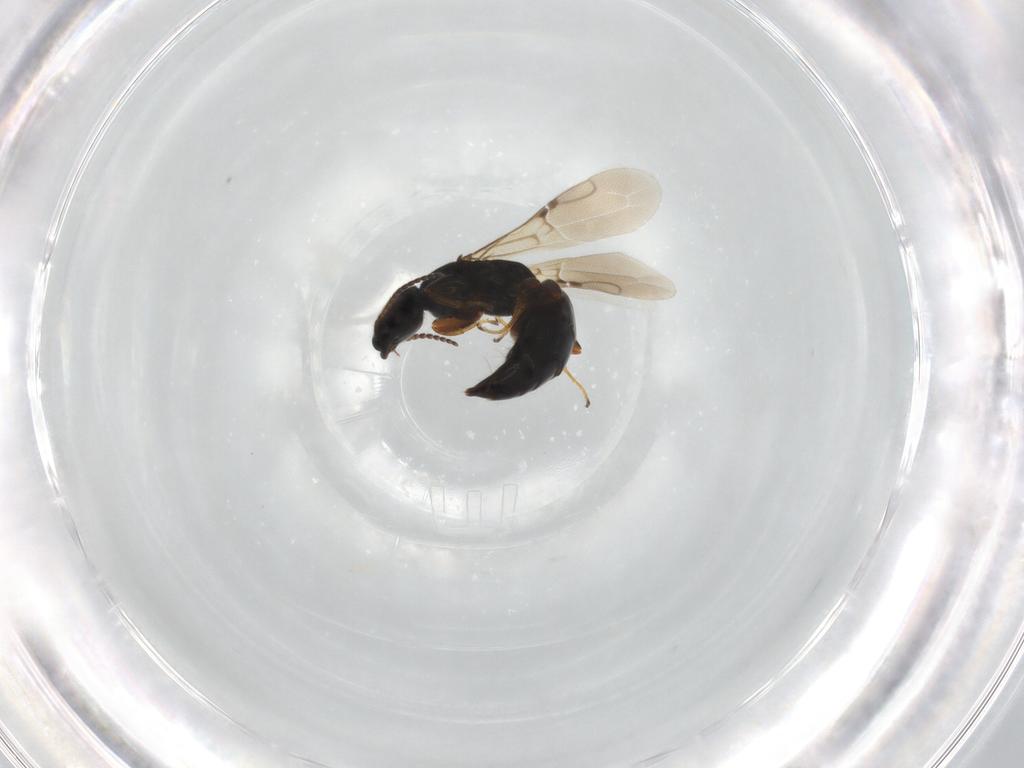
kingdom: Animalia
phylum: Arthropoda
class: Insecta
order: Hymenoptera
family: Bethylidae
